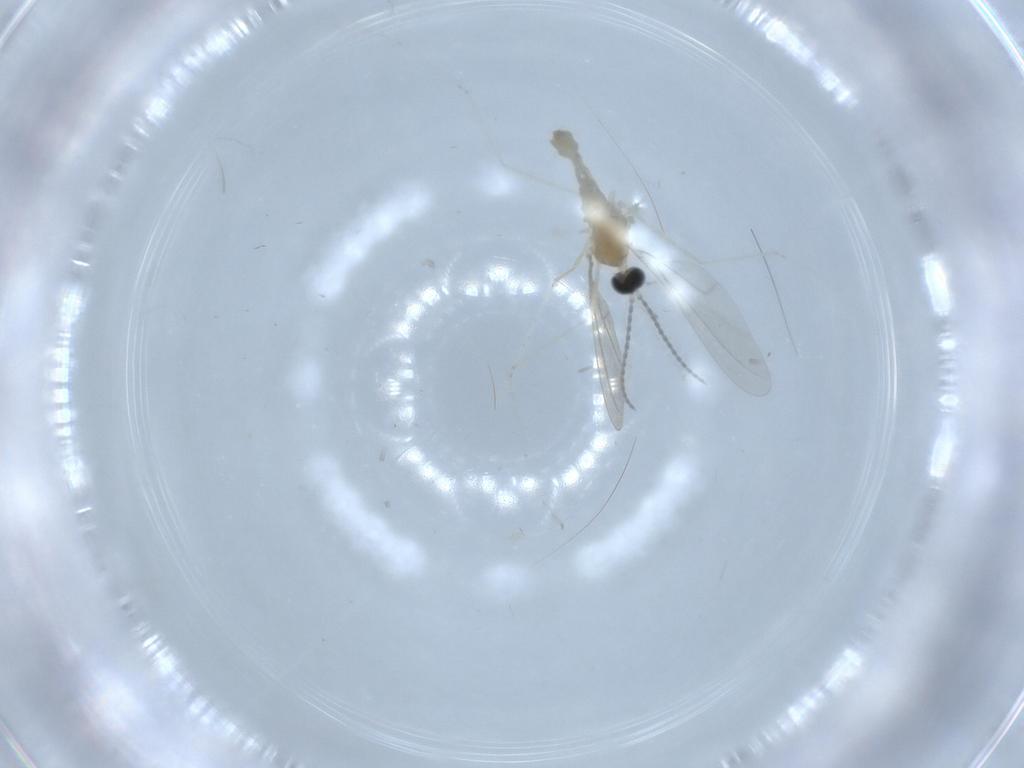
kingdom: Animalia
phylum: Arthropoda
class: Insecta
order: Diptera
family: Cecidomyiidae
